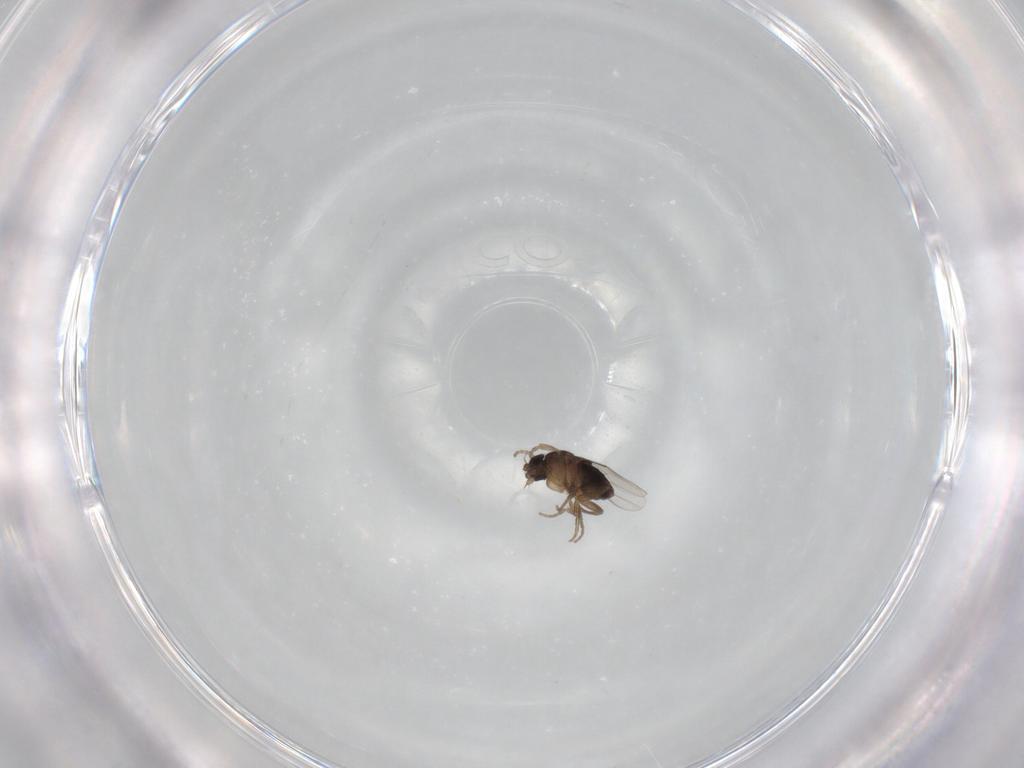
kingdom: Animalia
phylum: Arthropoda
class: Insecta
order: Diptera
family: Phoridae
